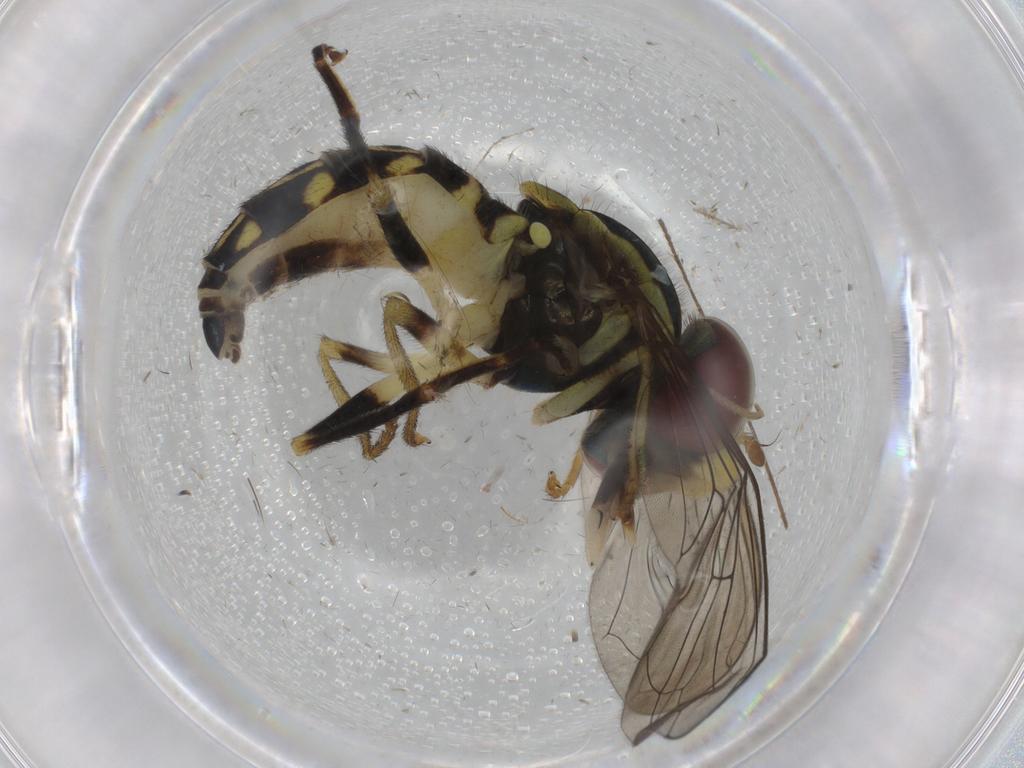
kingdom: Animalia
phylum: Arthropoda
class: Insecta
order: Diptera
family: Syrphidae
